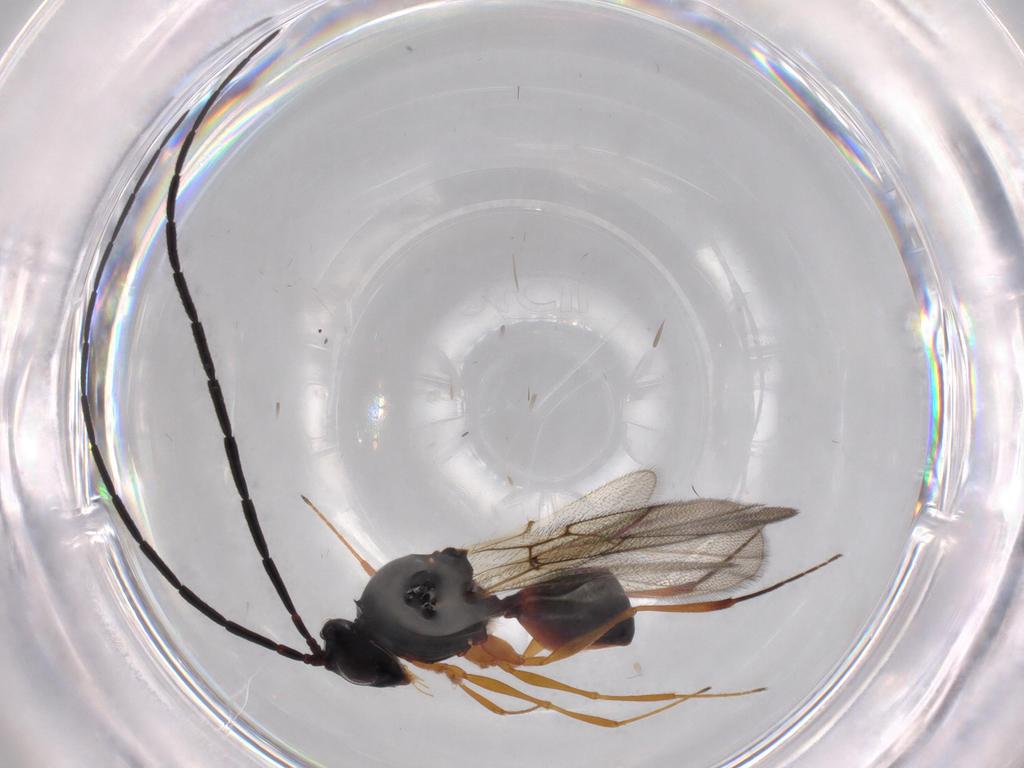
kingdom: Animalia
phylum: Arthropoda
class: Insecta
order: Hymenoptera
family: Figitidae
